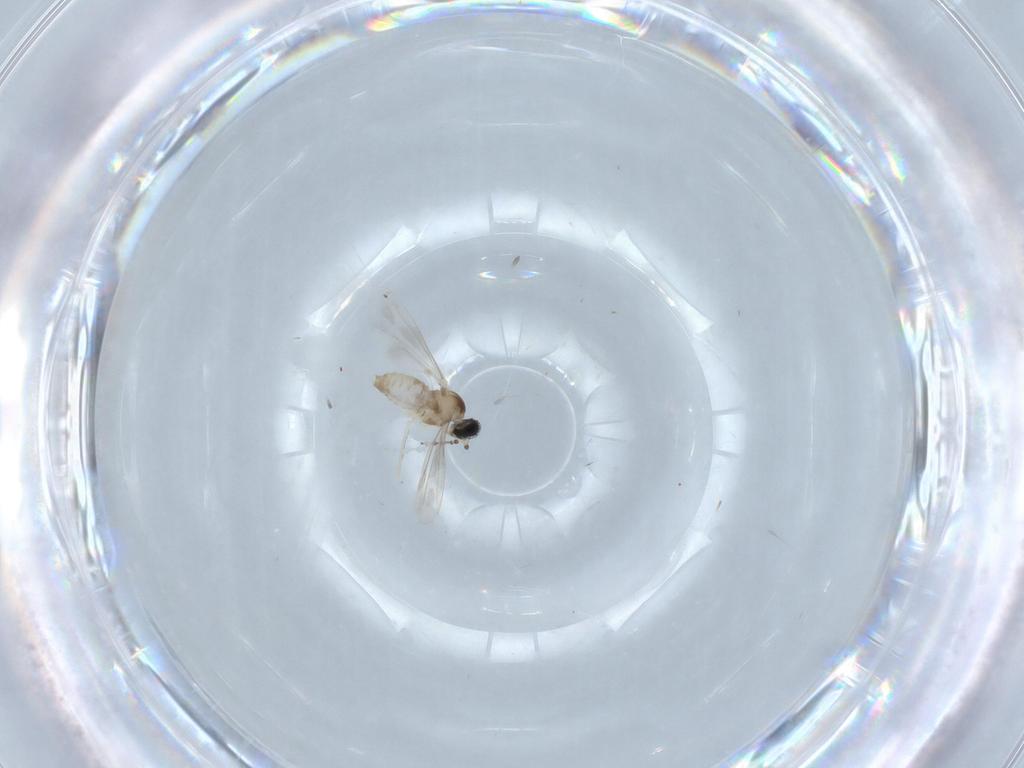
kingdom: Animalia
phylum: Arthropoda
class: Insecta
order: Diptera
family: Cecidomyiidae
